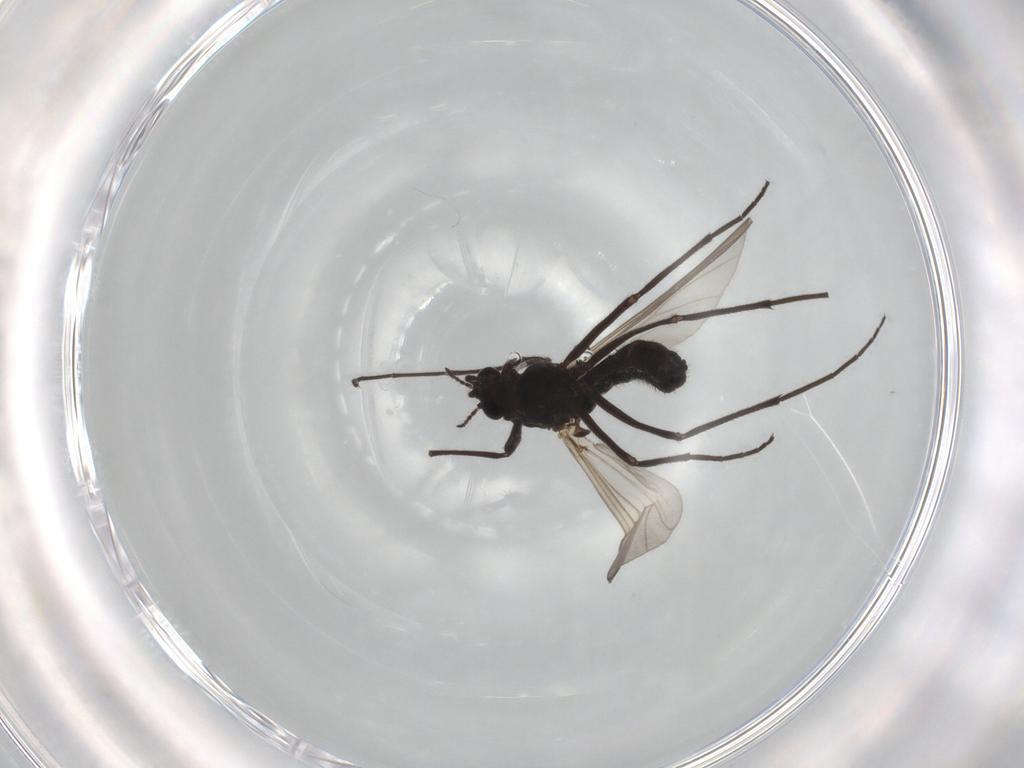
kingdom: Animalia
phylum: Arthropoda
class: Insecta
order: Diptera
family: Chironomidae
